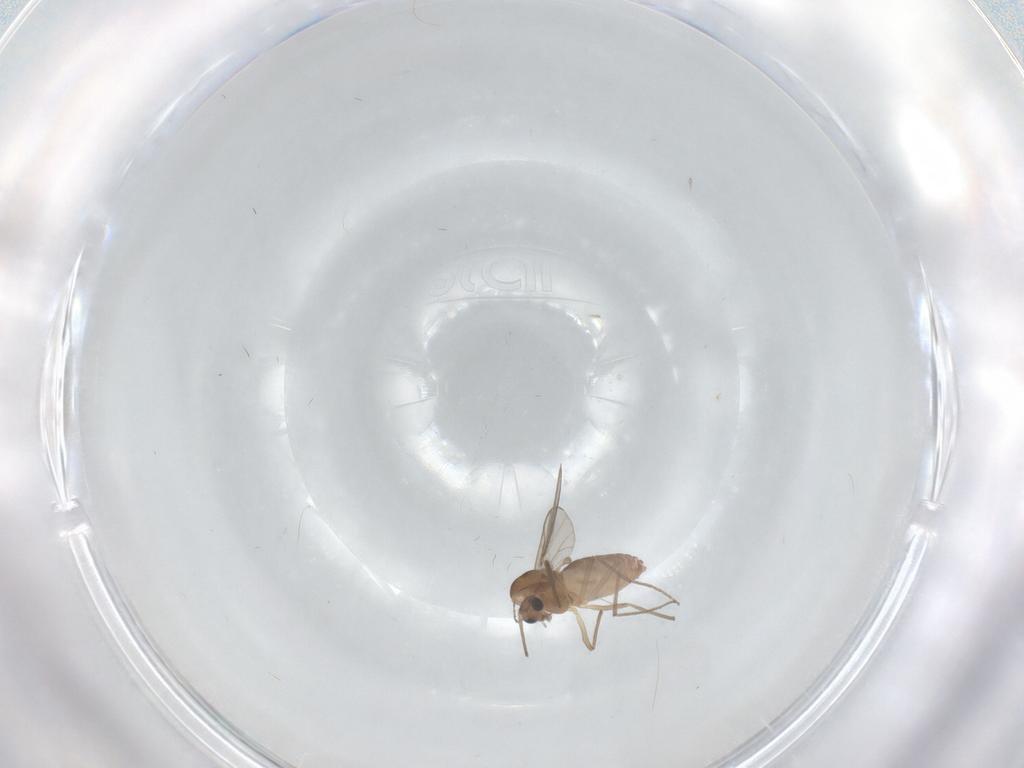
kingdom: Animalia
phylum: Arthropoda
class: Insecta
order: Diptera
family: Chironomidae
